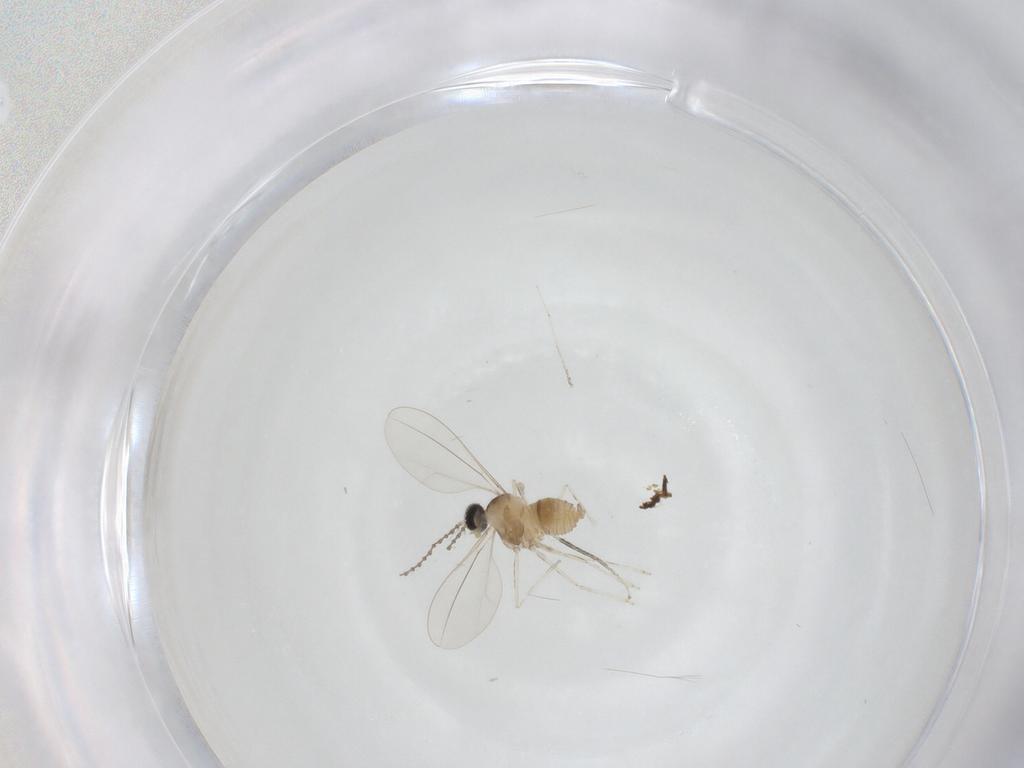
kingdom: Animalia
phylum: Arthropoda
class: Insecta
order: Diptera
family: Cecidomyiidae
